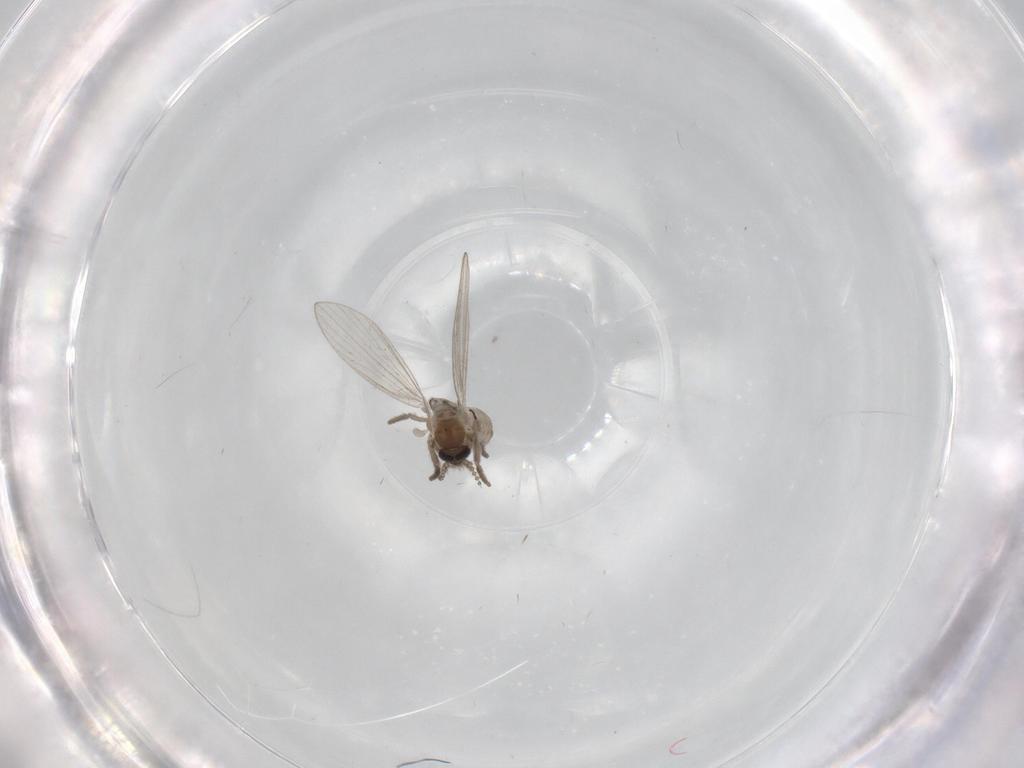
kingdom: Animalia
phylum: Arthropoda
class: Insecta
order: Diptera
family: Psychodidae
